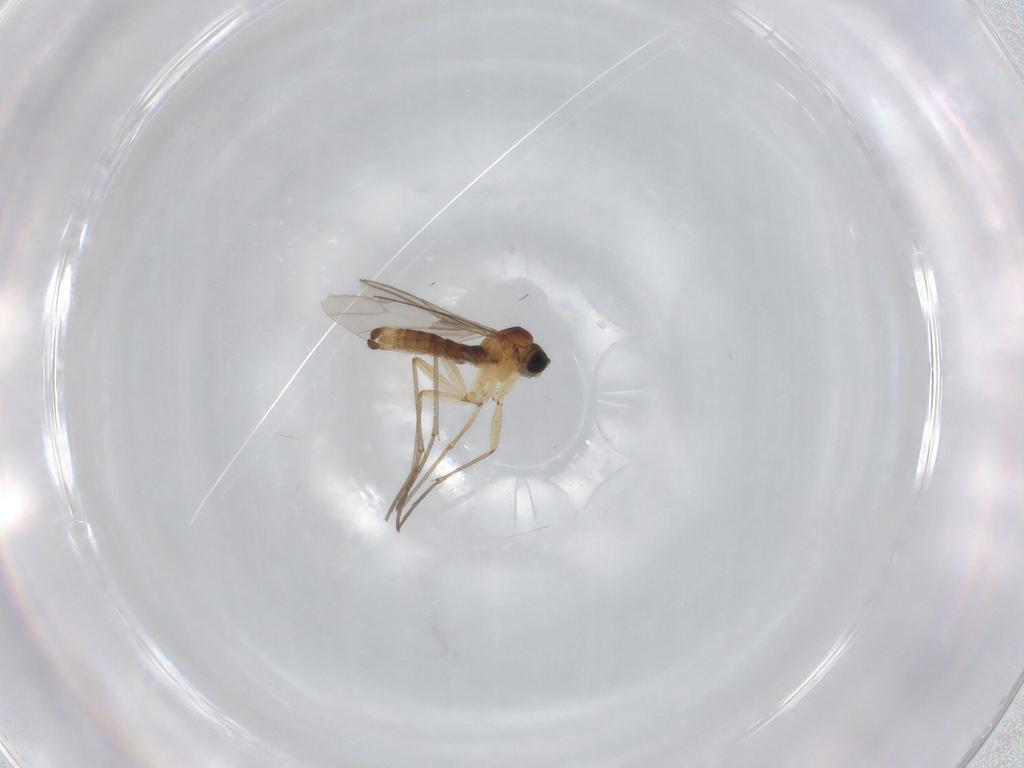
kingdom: Animalia
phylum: Arthropoda
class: Insecta
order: Diptera
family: Sciaridae
